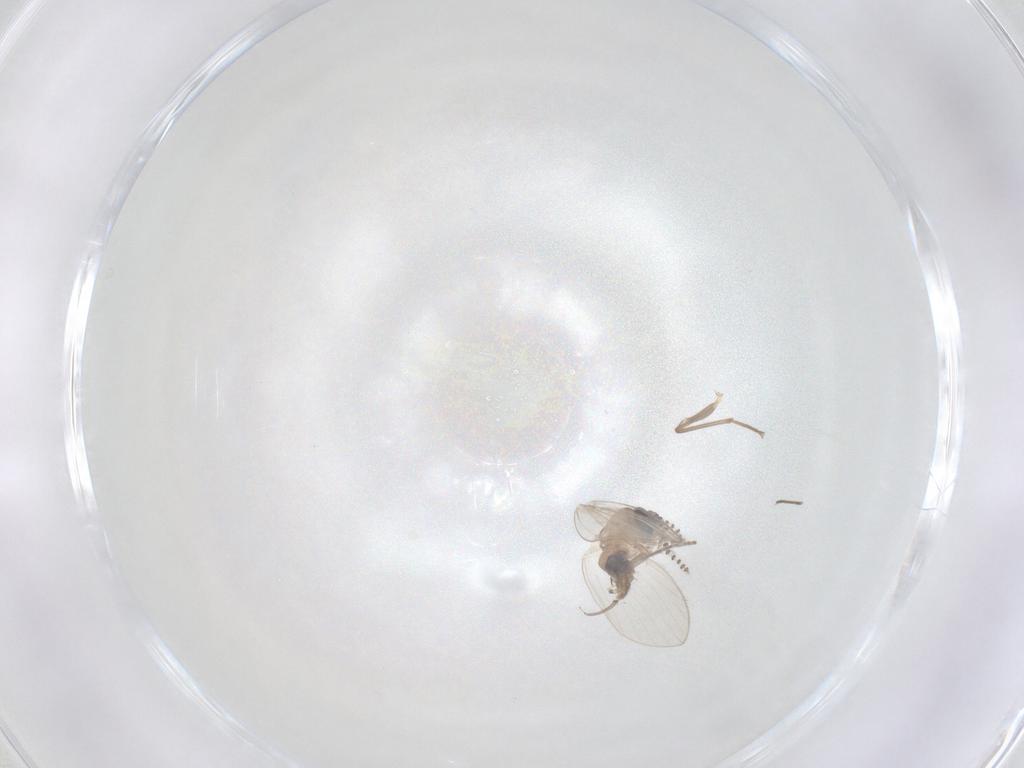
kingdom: Animalia
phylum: Arthropoda
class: Insecta
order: Diptera
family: Psychodidae
